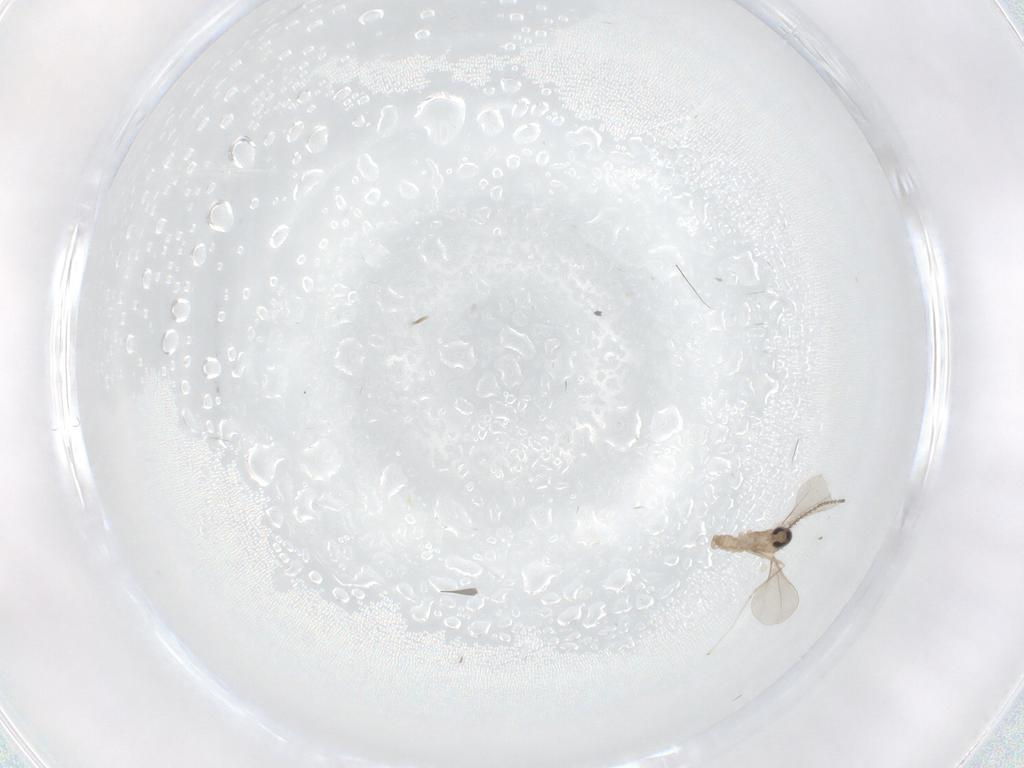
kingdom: Animalia
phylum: Arthropoda
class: Insecta
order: Diptera
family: Cecidomyiidae
